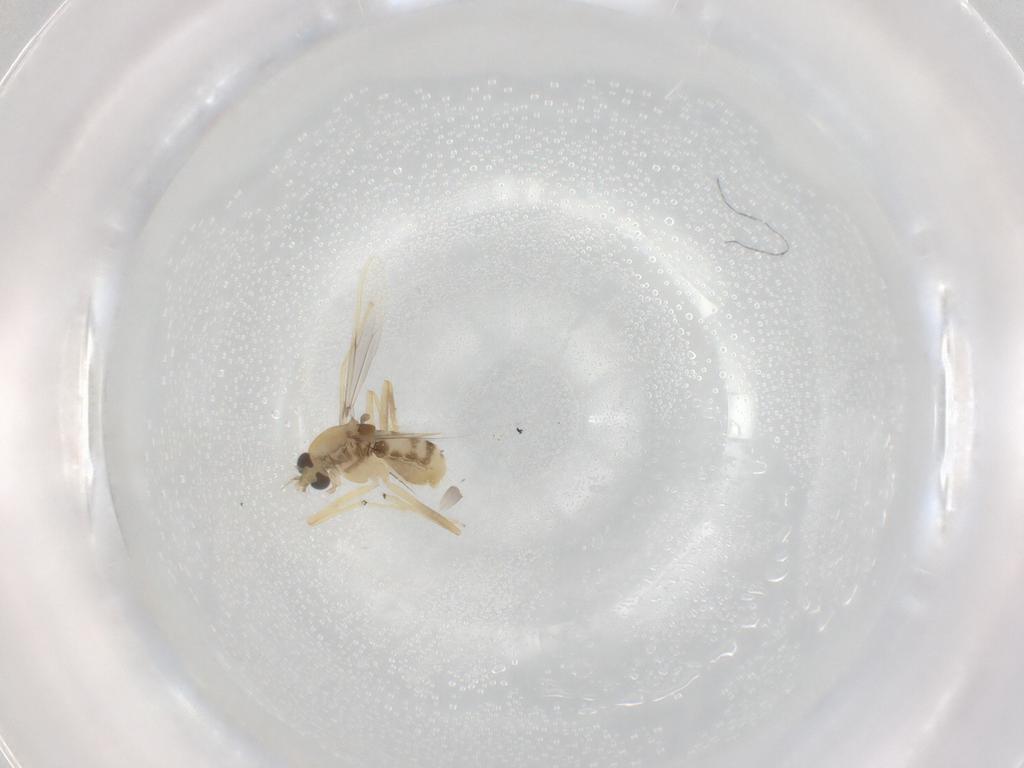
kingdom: Animalia
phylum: Arthropoda
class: Insecta
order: Diptera
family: Chironomidae
